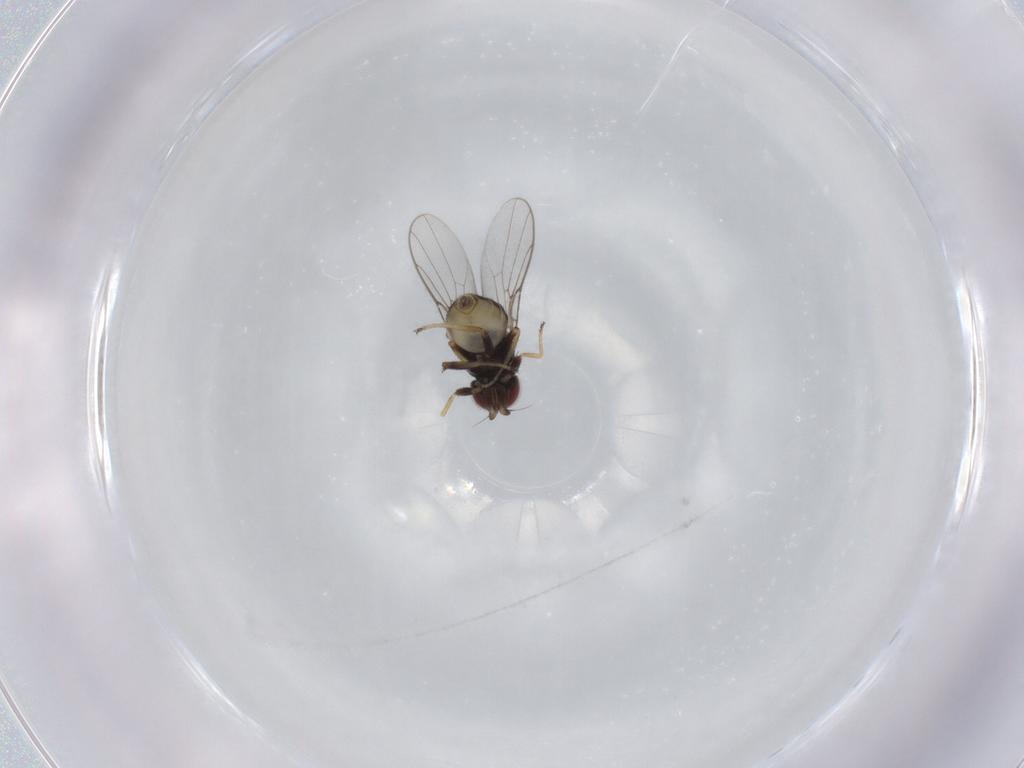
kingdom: Animalia
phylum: Arthropoda
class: Insecta
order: Diptera
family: Chloropidae
